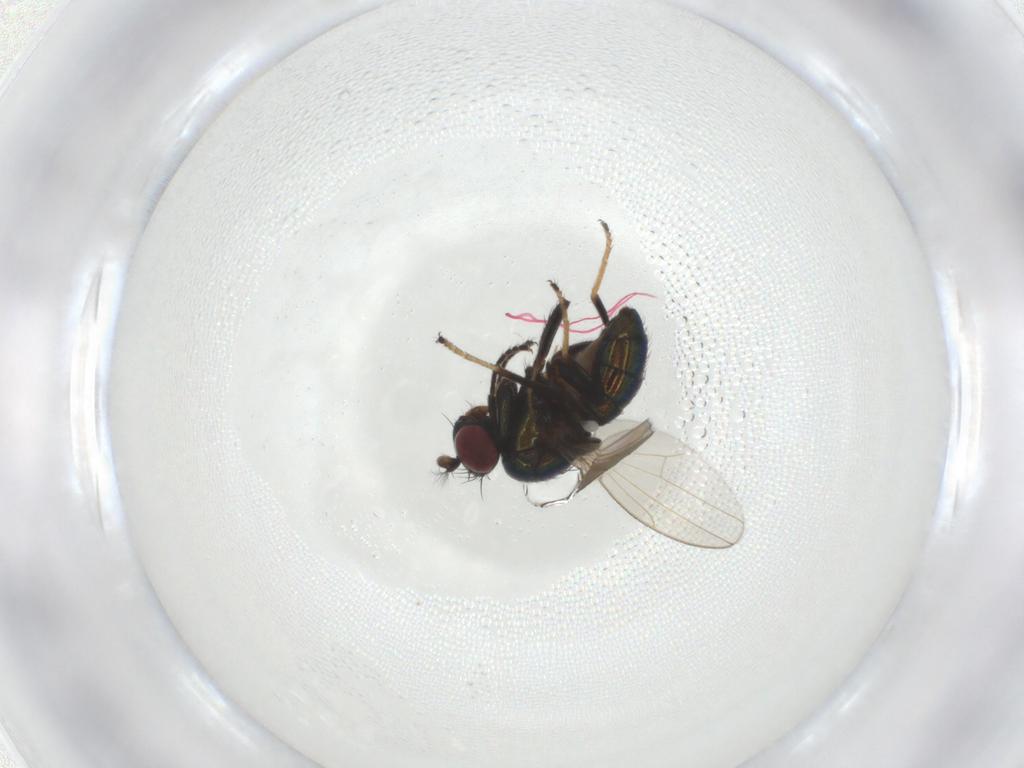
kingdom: Animalia
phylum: Arthropoda
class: Insecta
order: Diptera
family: Ephydridae
